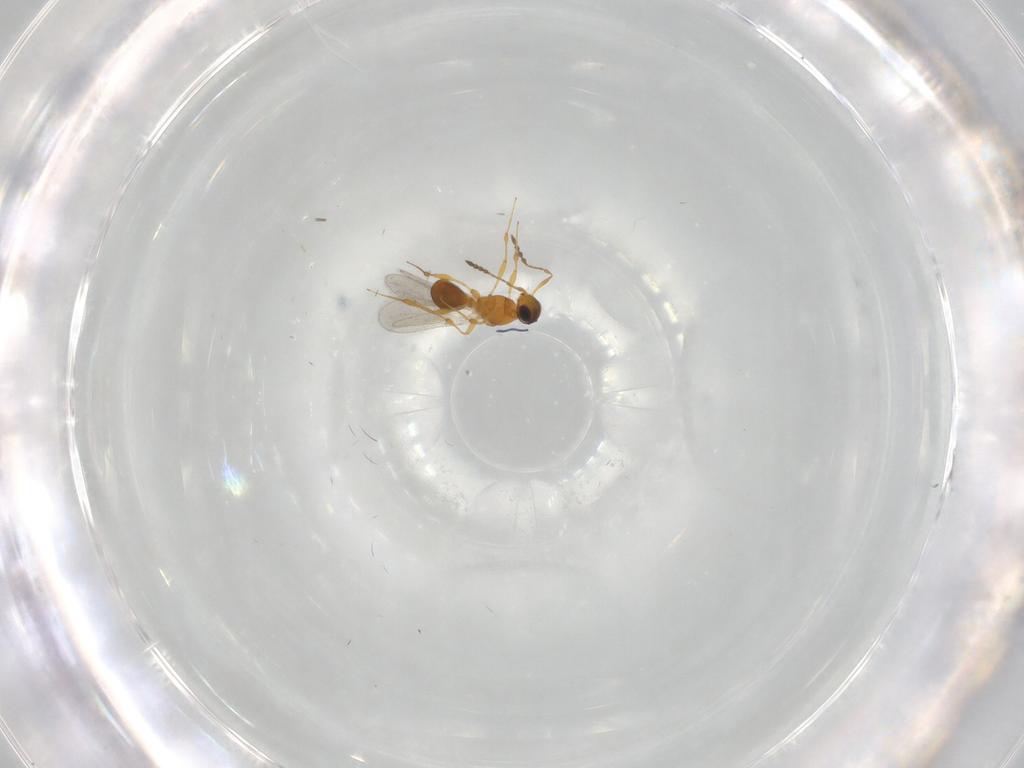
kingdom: Animalia
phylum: Arthropoda
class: Insecta
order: Hymenoptera
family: Platygastridae
